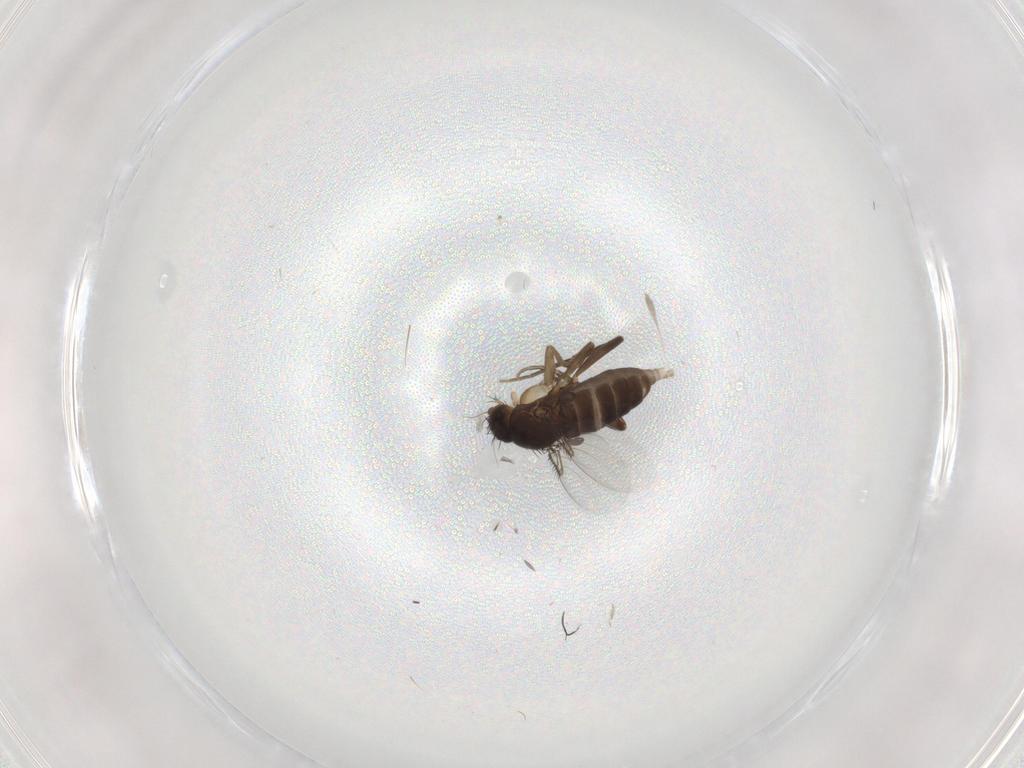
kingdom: Animalia
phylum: Arthropoda
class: Insecta
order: Diptera
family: Phoridae
